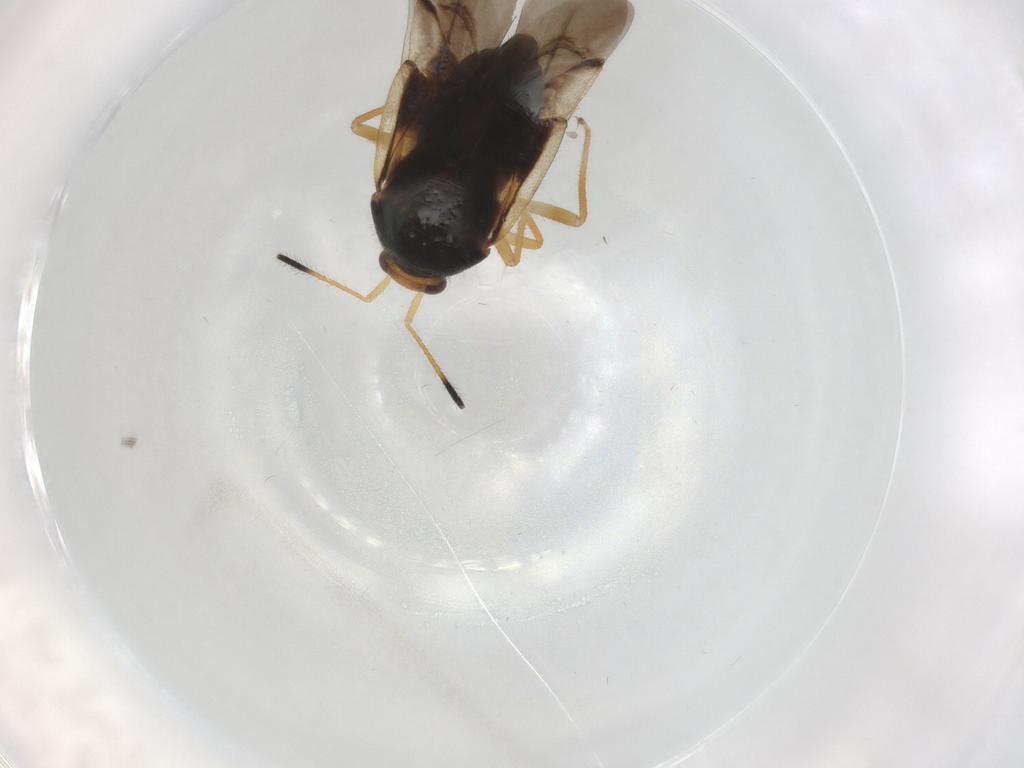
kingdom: Animalia
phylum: Arthropoda
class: Insecta
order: Hemiptera
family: Miridae
